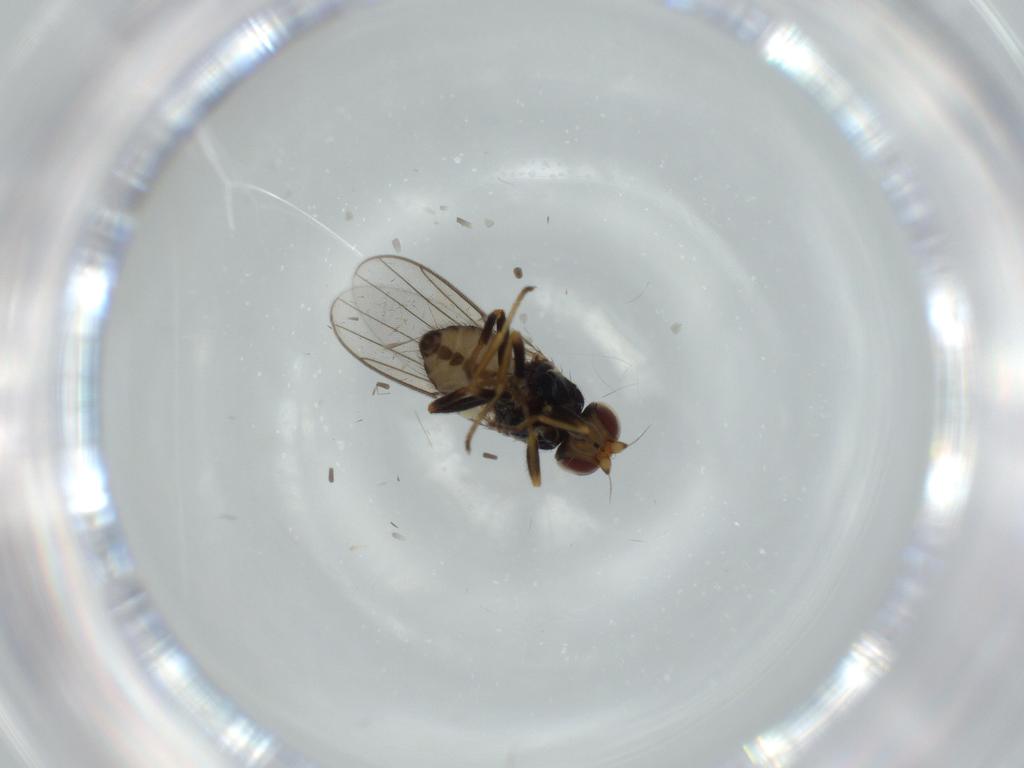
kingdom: Animalia
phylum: Arthropoda
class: Insecta
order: Diptera
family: Chloropidae
